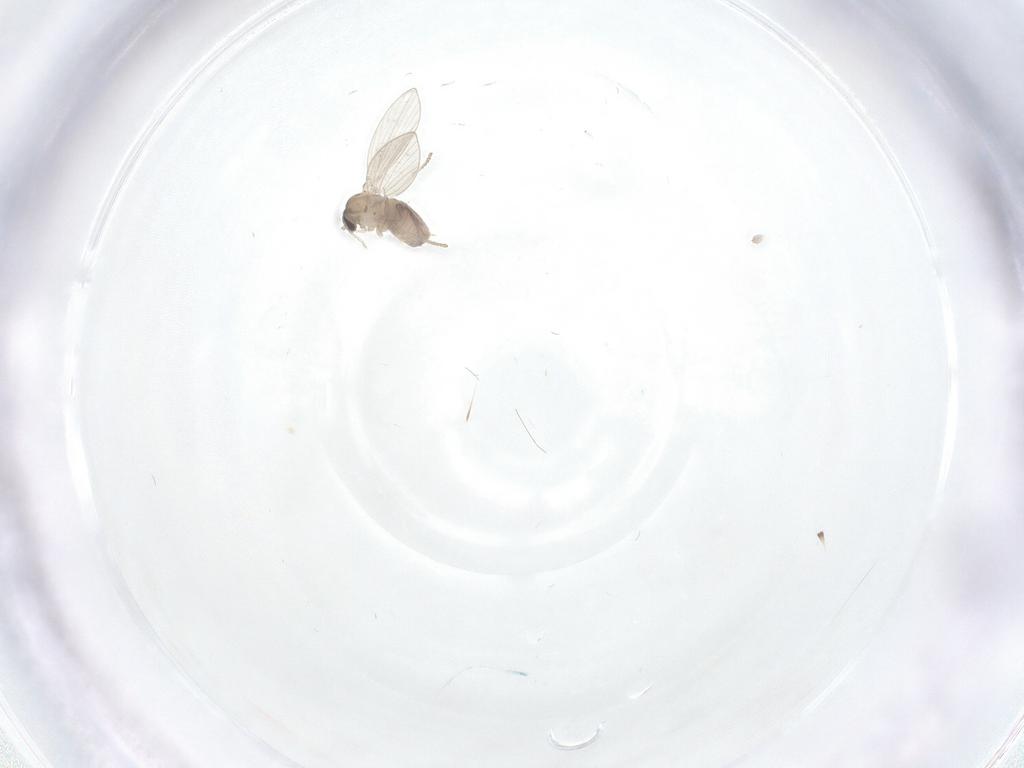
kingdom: Animalia
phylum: Arthropoda
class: Insecta
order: Diptera
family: Psychodidae
